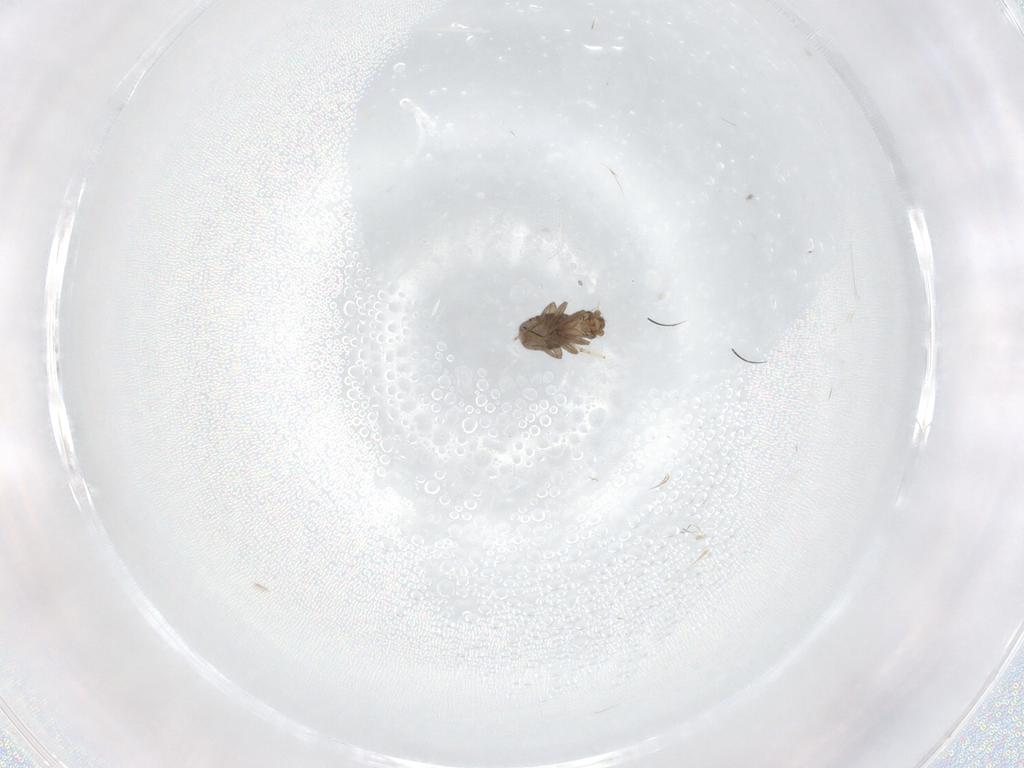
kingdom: Animalia
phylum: Arthropoda
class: Insecta
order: Diptera
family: Phoridae
